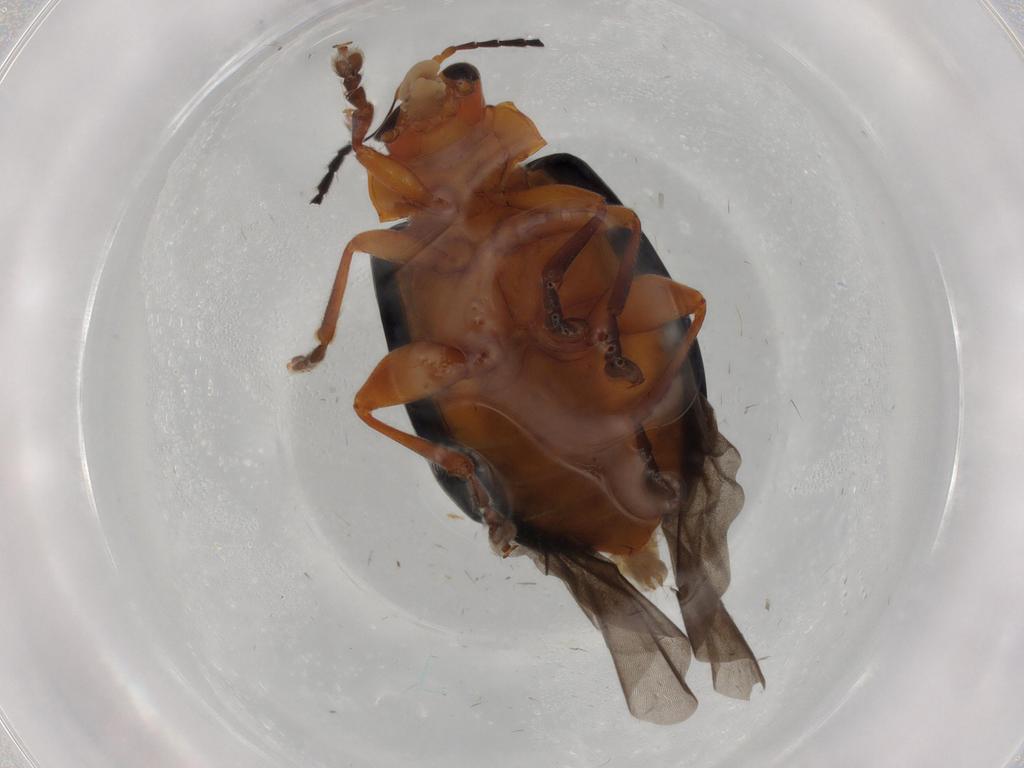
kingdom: Animalia
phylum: Arthropoda
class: Insecta
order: Coleoptera
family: Chrysomelidae
